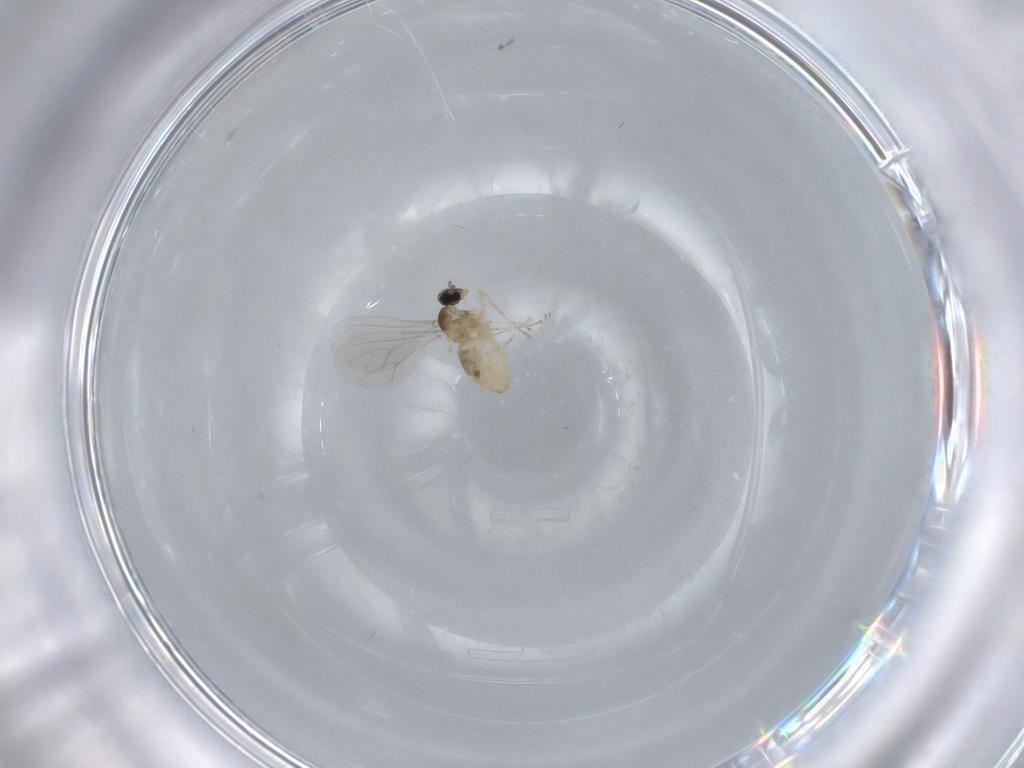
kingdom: Animalia
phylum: Arthropoda
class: Insecta
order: Diptera
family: Cecidomyiidae
